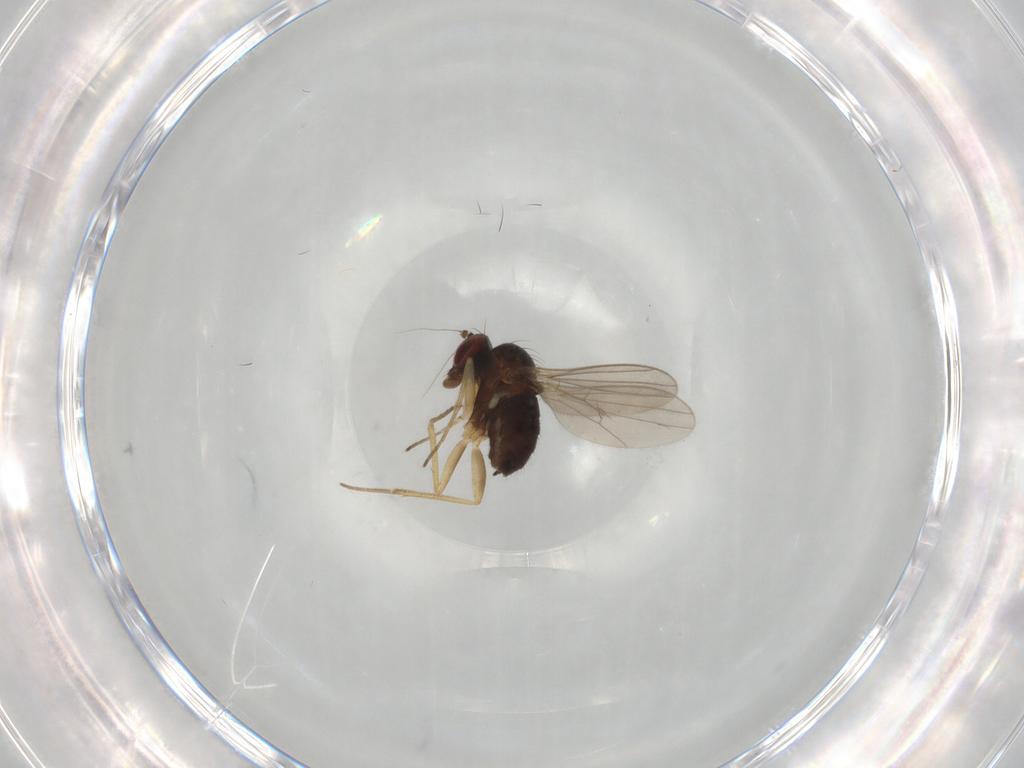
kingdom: Animalia
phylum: Arthropoda
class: Insecta
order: Diptera
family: Dolichopodidae
